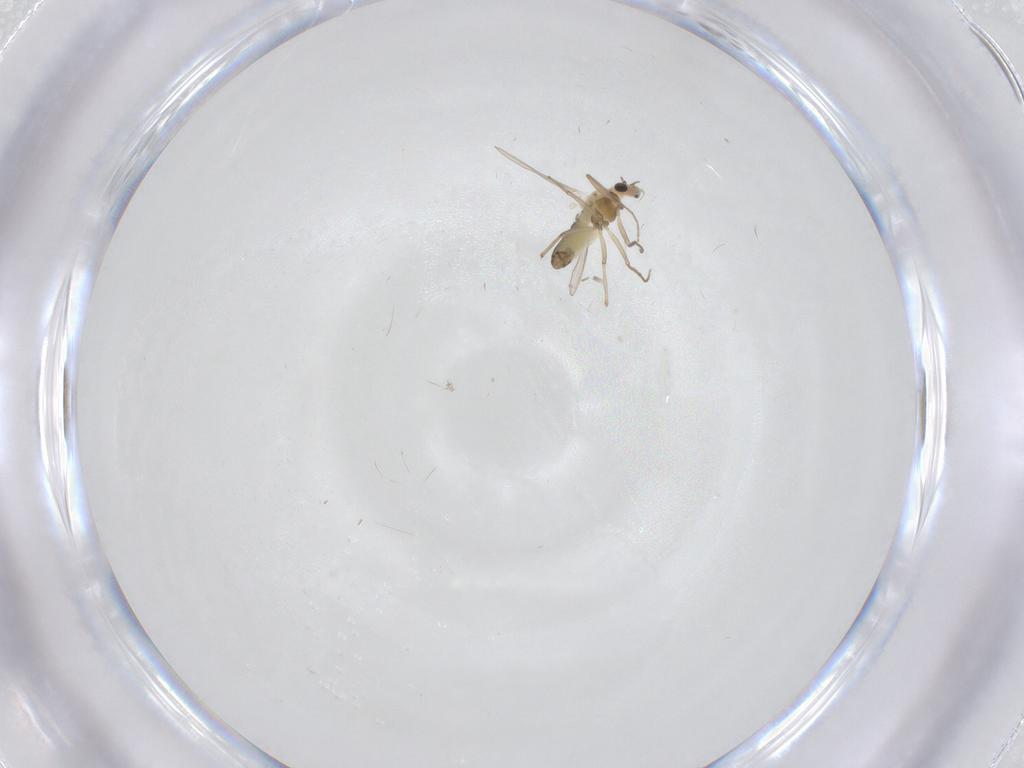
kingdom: Animalia
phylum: Arthropoda
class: Insecta
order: Diptera
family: Chironomidae
